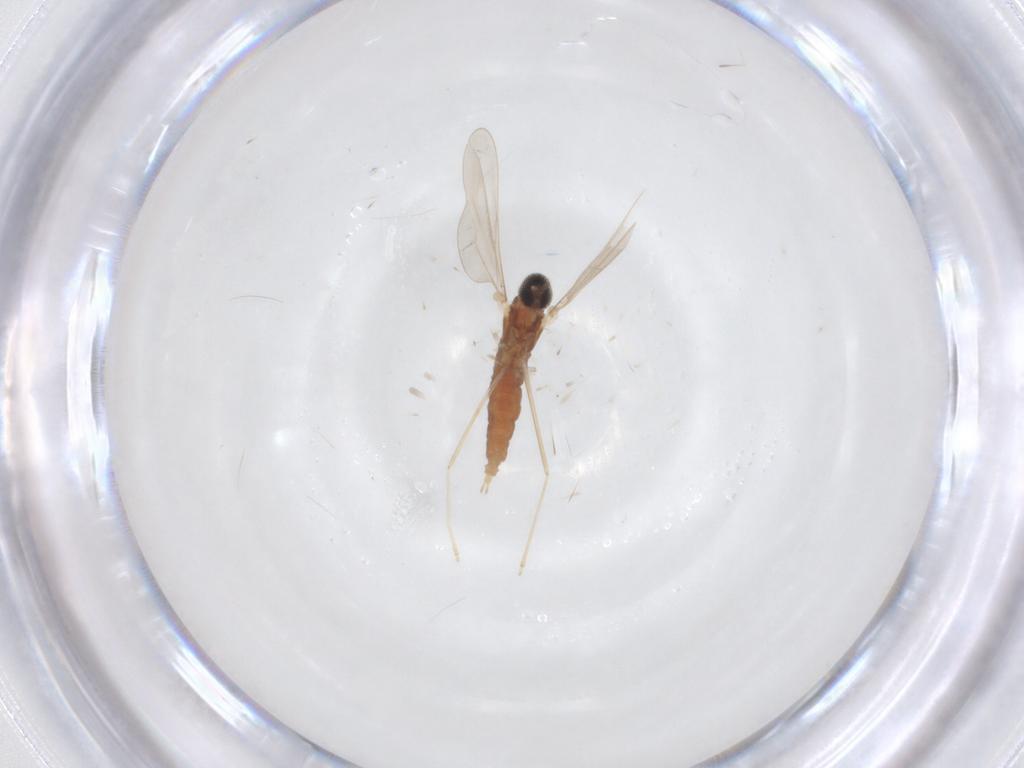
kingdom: Animalia
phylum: Arthropoda
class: Insecta
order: Diptera
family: Cecidomyiidae
